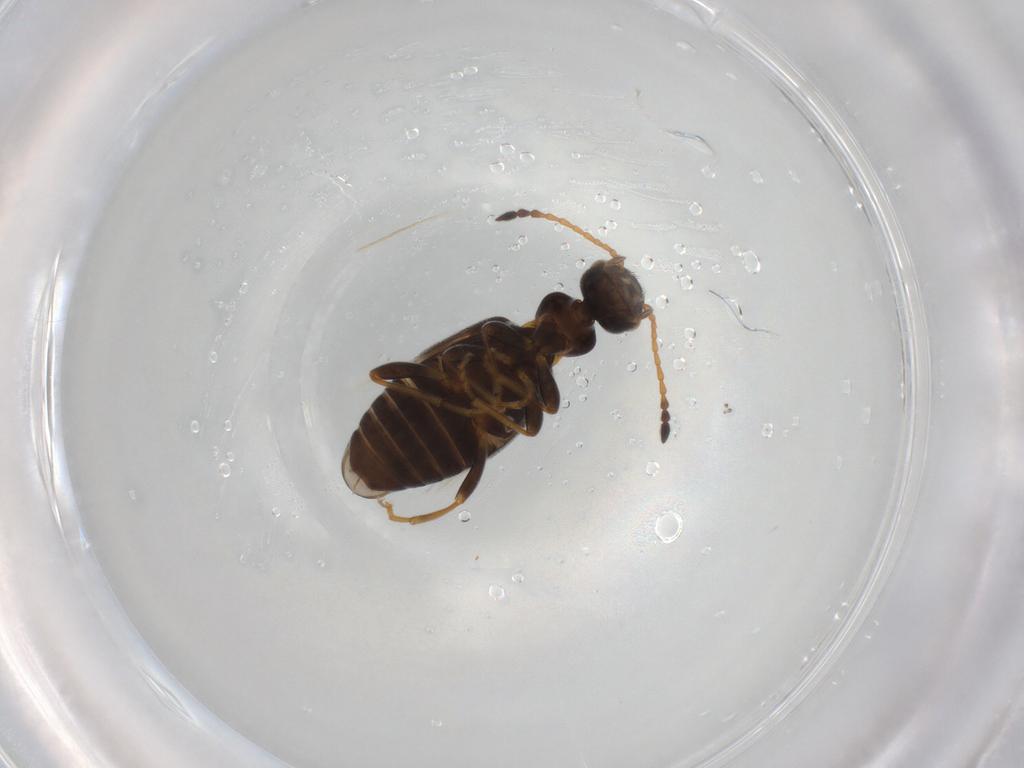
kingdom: Animalia
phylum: Arthropoda
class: Insecta
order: Coleoptera
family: Anthicidae
